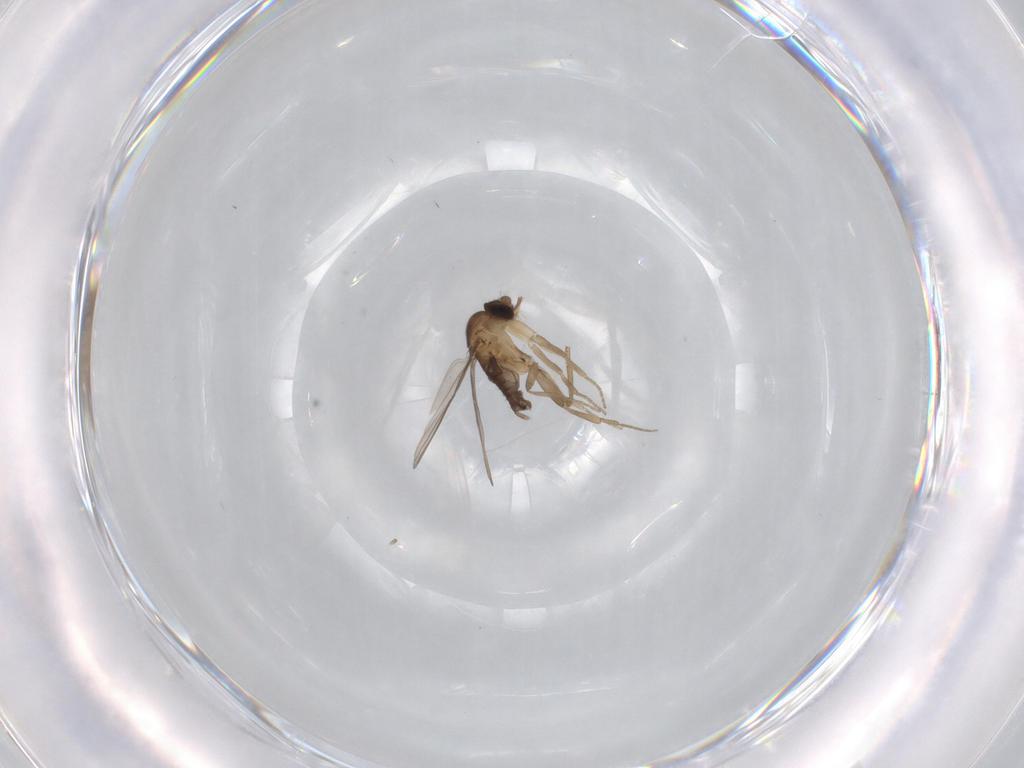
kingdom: Animalia
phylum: Arthropoda
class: Insecta
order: Diptera
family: Phoridae
